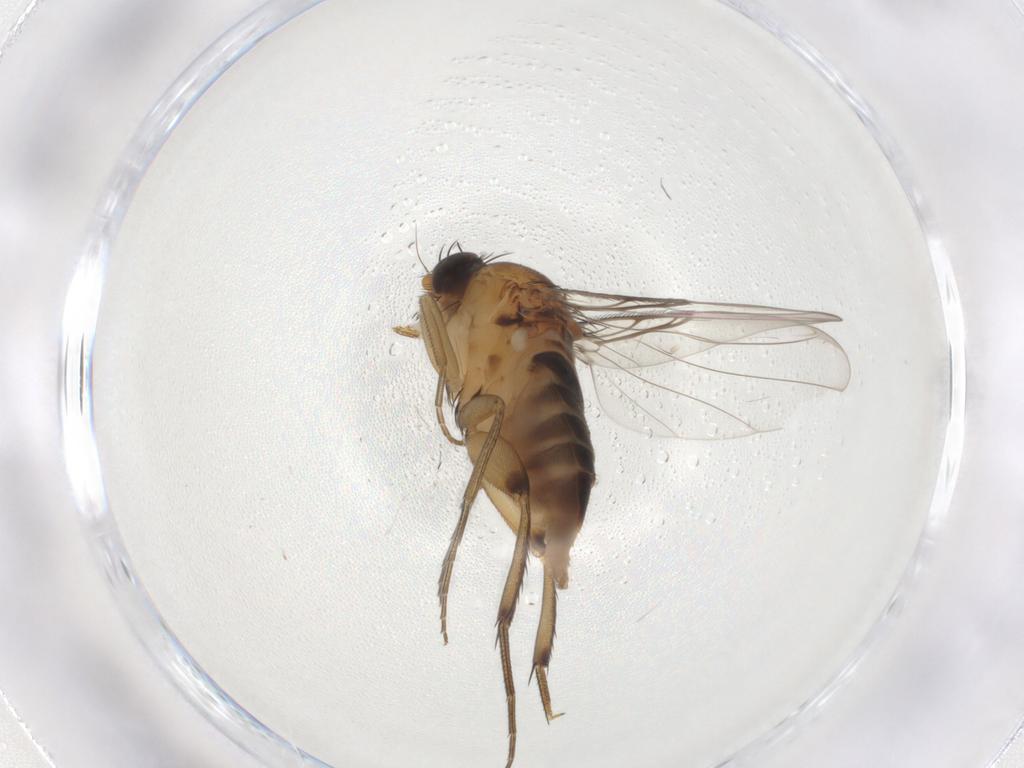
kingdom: Animalia
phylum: Arthropoda
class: Insecta
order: Diptera
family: Phoridae
